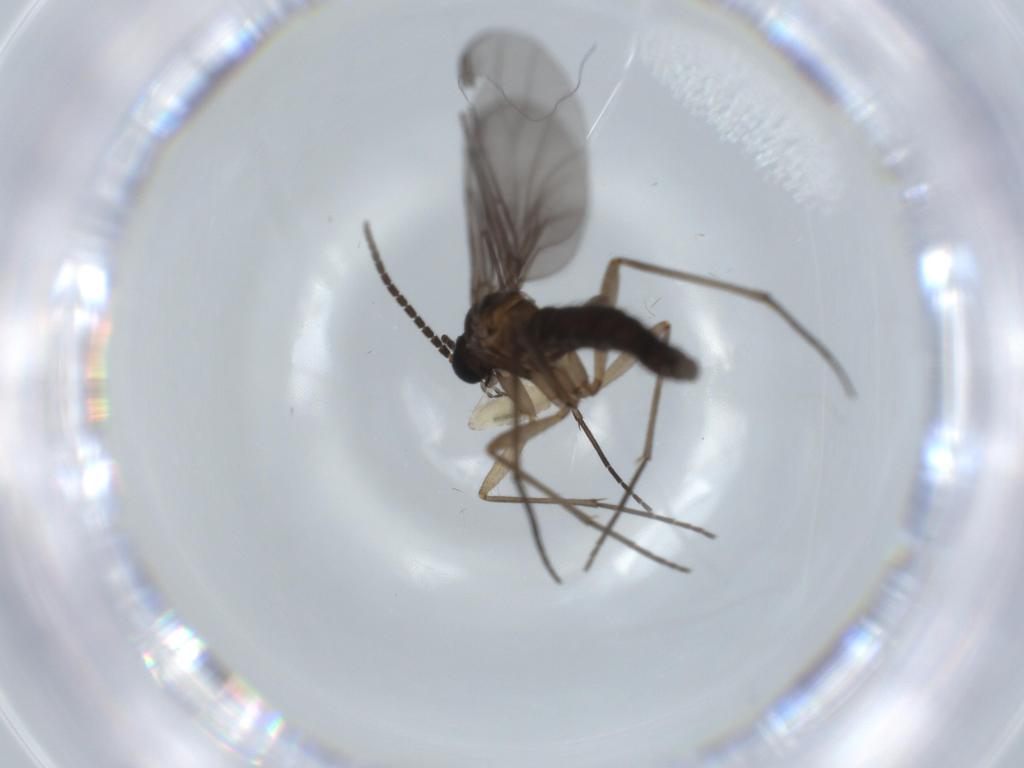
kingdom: Animalia
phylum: Arthropoda
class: Insecta
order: Diptera
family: Sciaridae
